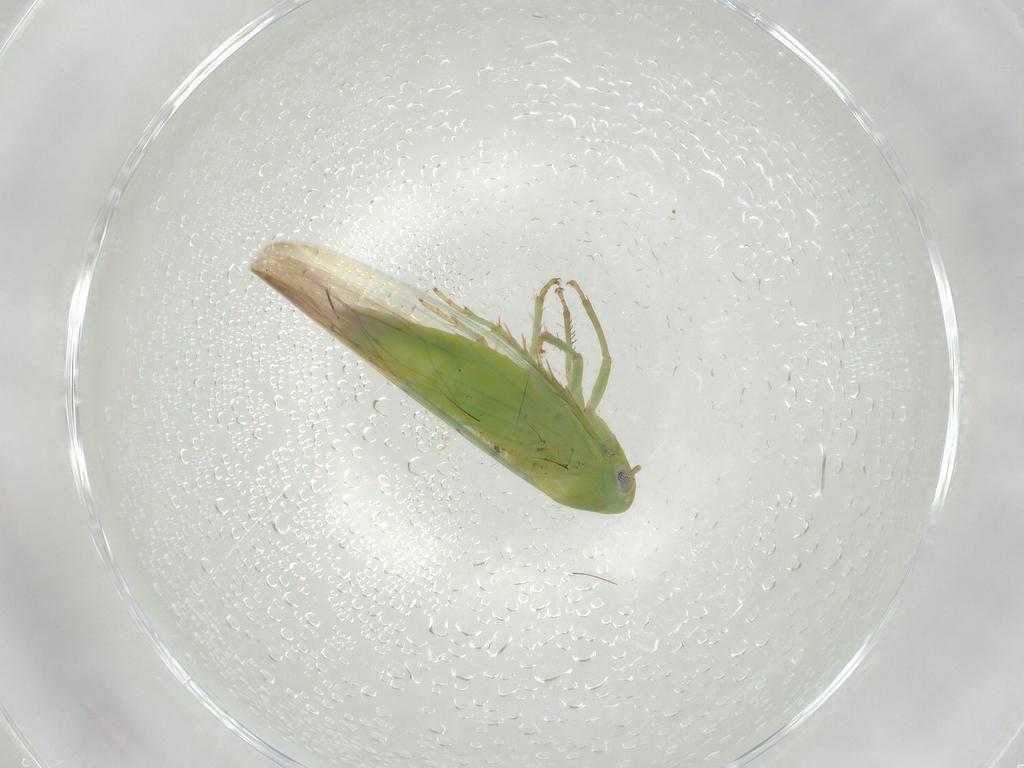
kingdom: Animalia
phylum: Arthropoda
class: Insecta
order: Hemiptera
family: Cicadellidae
